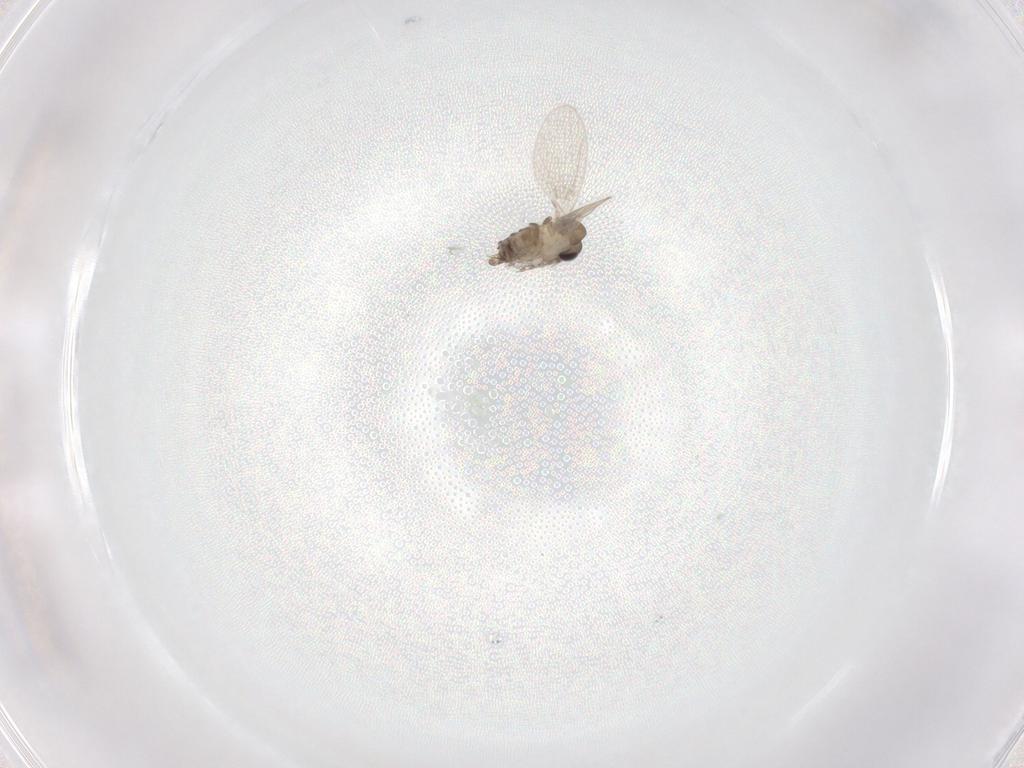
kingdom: Animalia
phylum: Arthropoda
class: Insecta
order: Diptera
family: Cecidomyiidae
